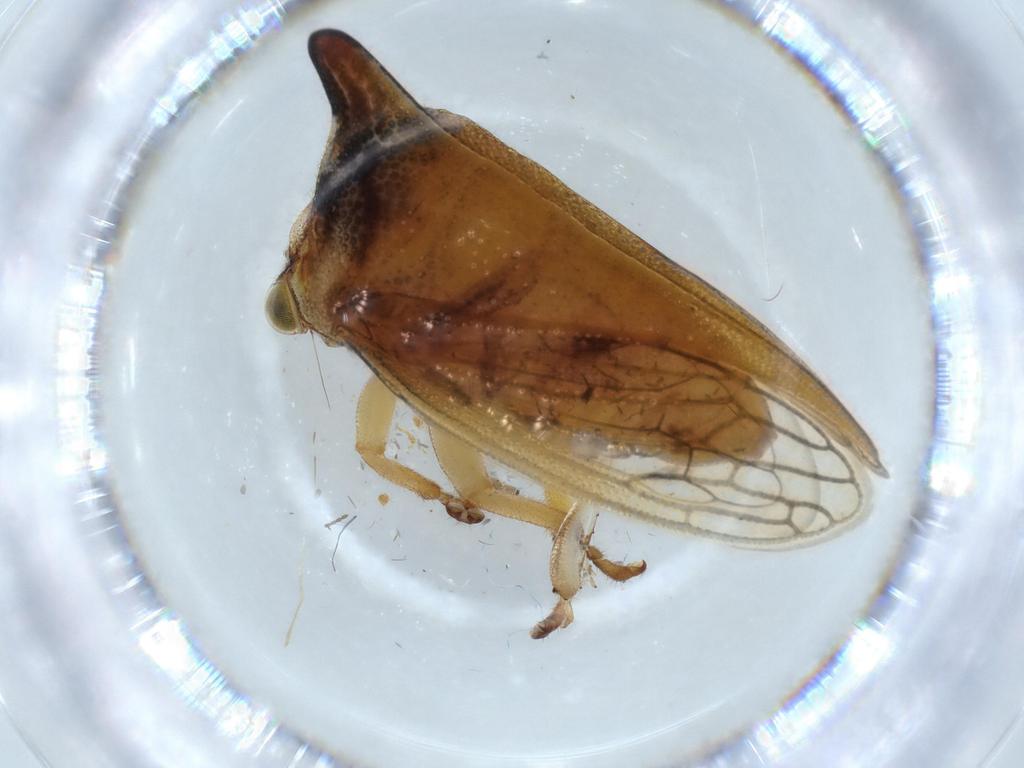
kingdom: Animalia
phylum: Arthropoda
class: Insecta
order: Hemiptera
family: Membracidae
